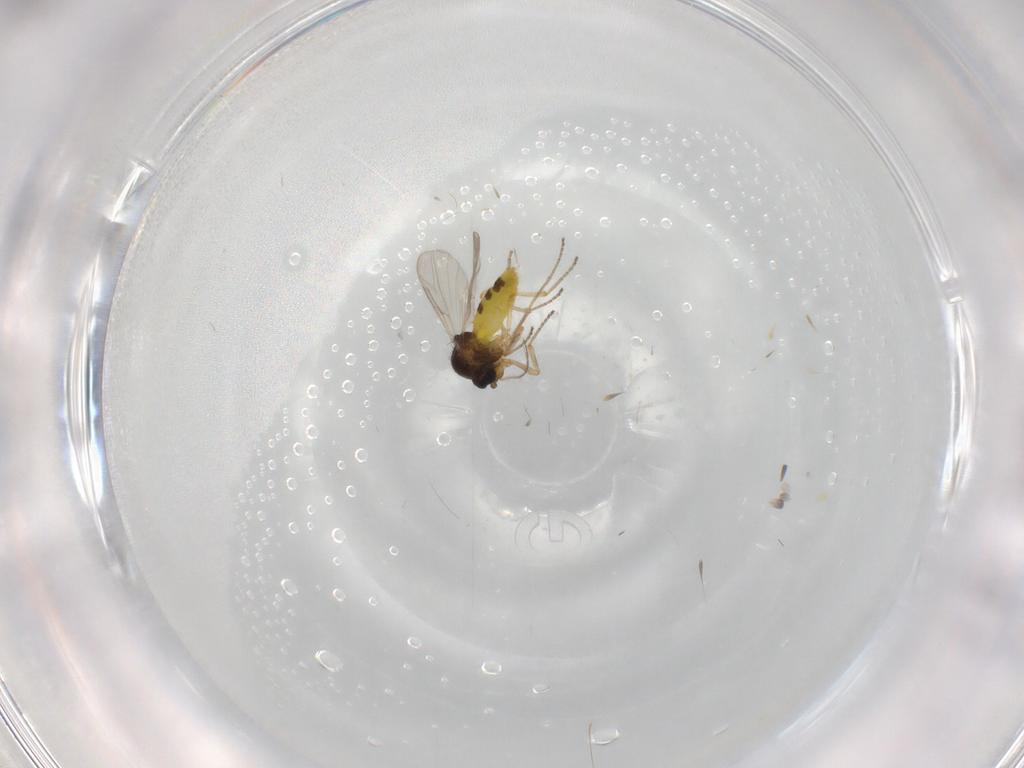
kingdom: Animalia
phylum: Arthropoda
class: Insecta
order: Diptera
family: Ceratopogonidae
